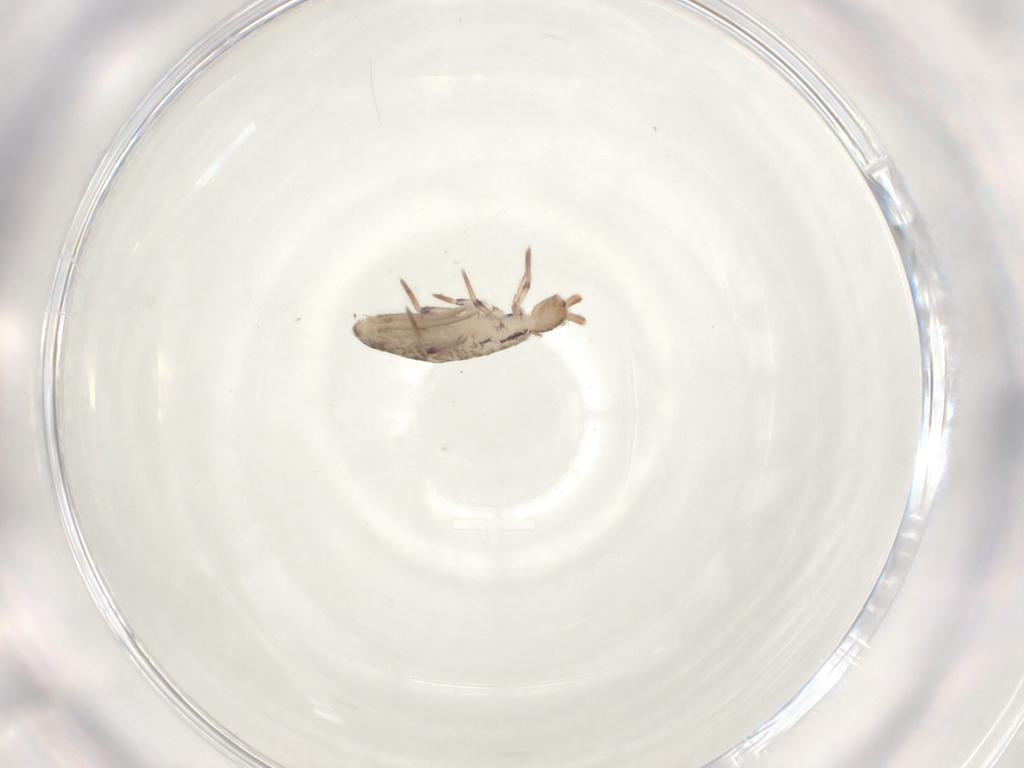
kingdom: Animalia
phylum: Arthropoda
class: Collembola
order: Entomobryomorpha
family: Entomobryidae
